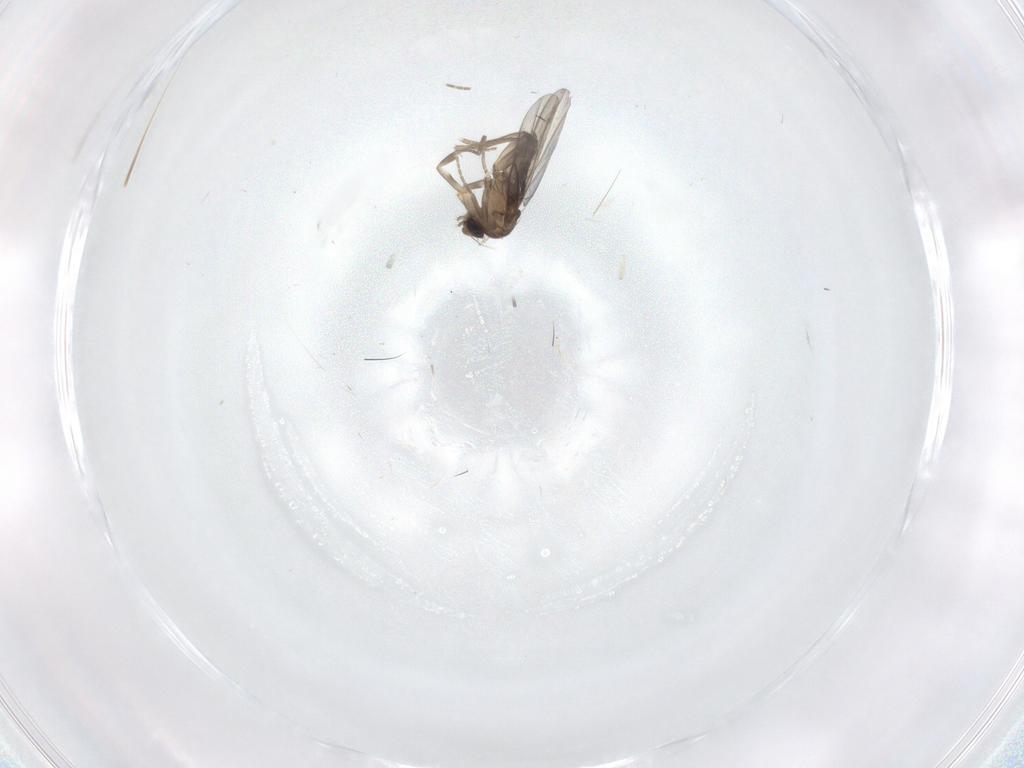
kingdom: Animalia
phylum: Arthropoda
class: Insecta
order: Diptera
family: Phoridae
